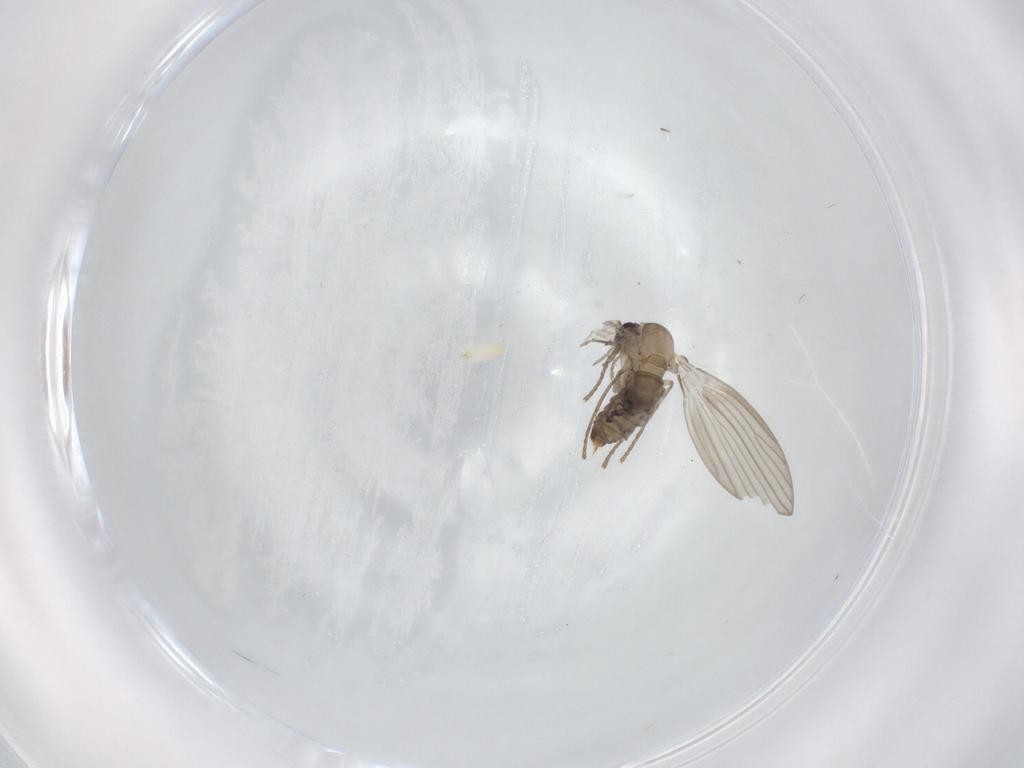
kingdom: Animalia
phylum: Arthropoda
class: Insecta
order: Diptera
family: Psychodidae
